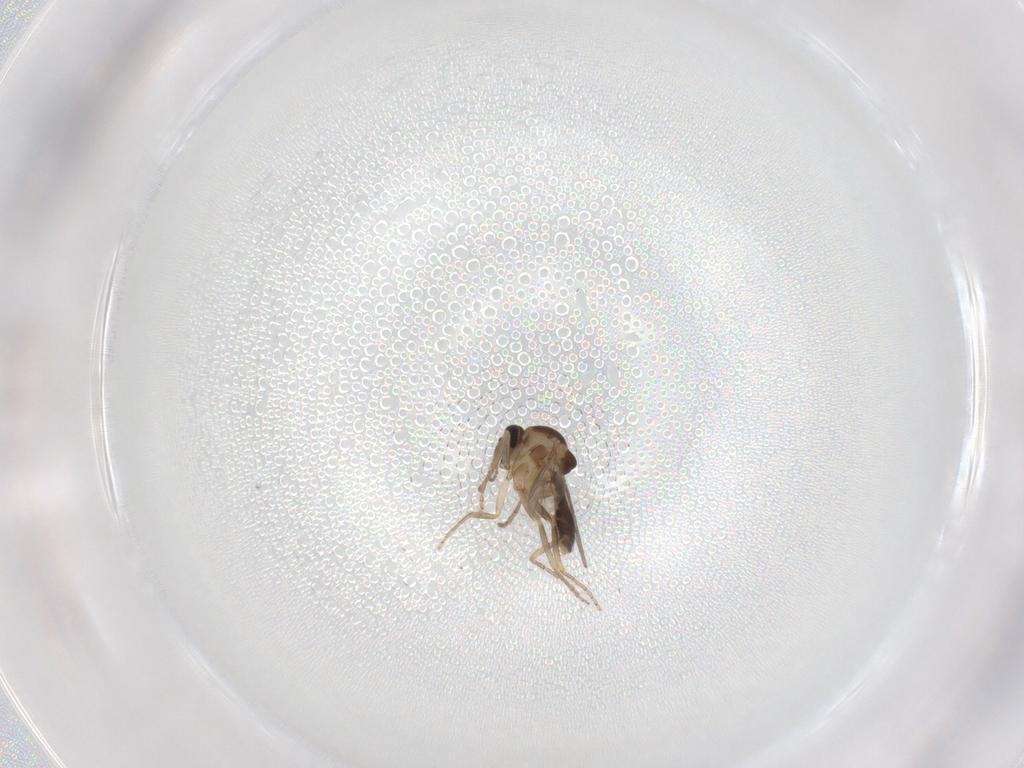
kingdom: Animalia
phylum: Arthropoda
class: Insecta
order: Diptera
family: Ceratopogonidae
